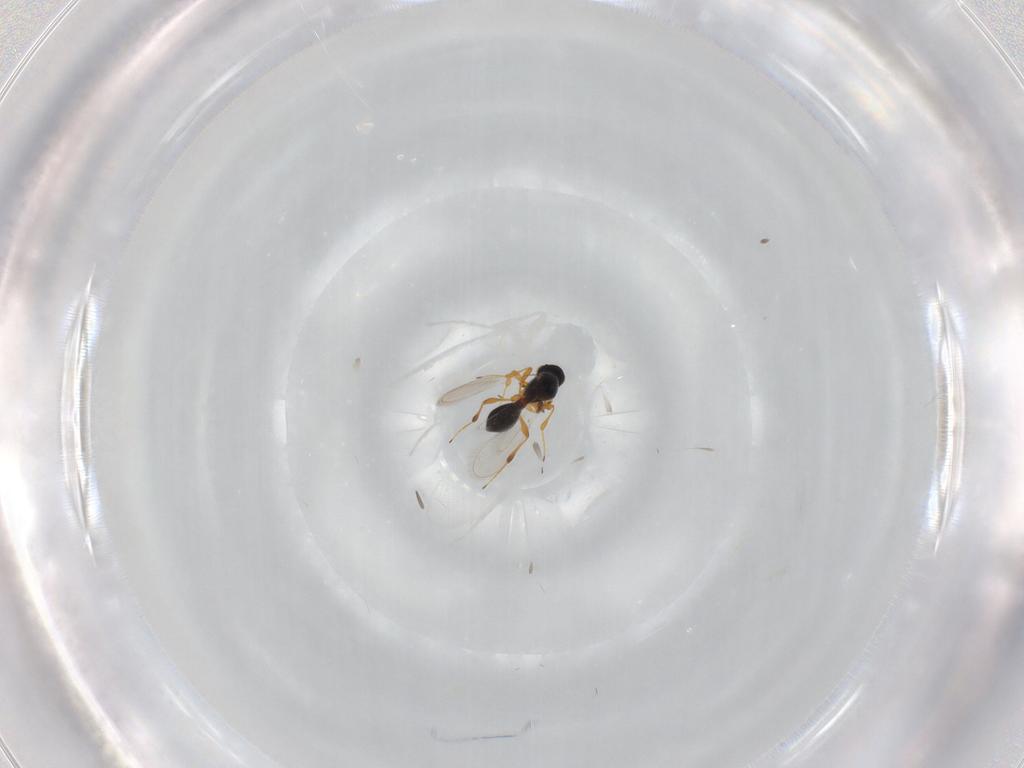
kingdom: Animalia
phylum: Arthropoda
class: Insecta
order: Hymenoptera
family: Platygastridae
